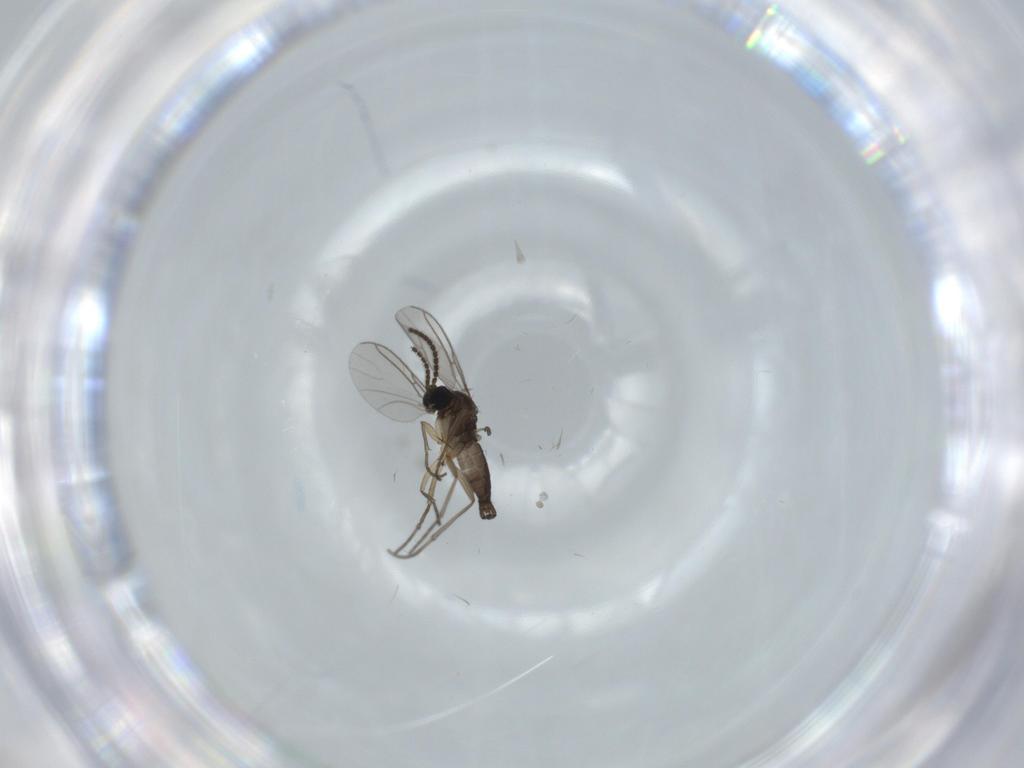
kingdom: Animalia
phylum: Arthropoda
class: Insecta
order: Diptera
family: Sciaridae
